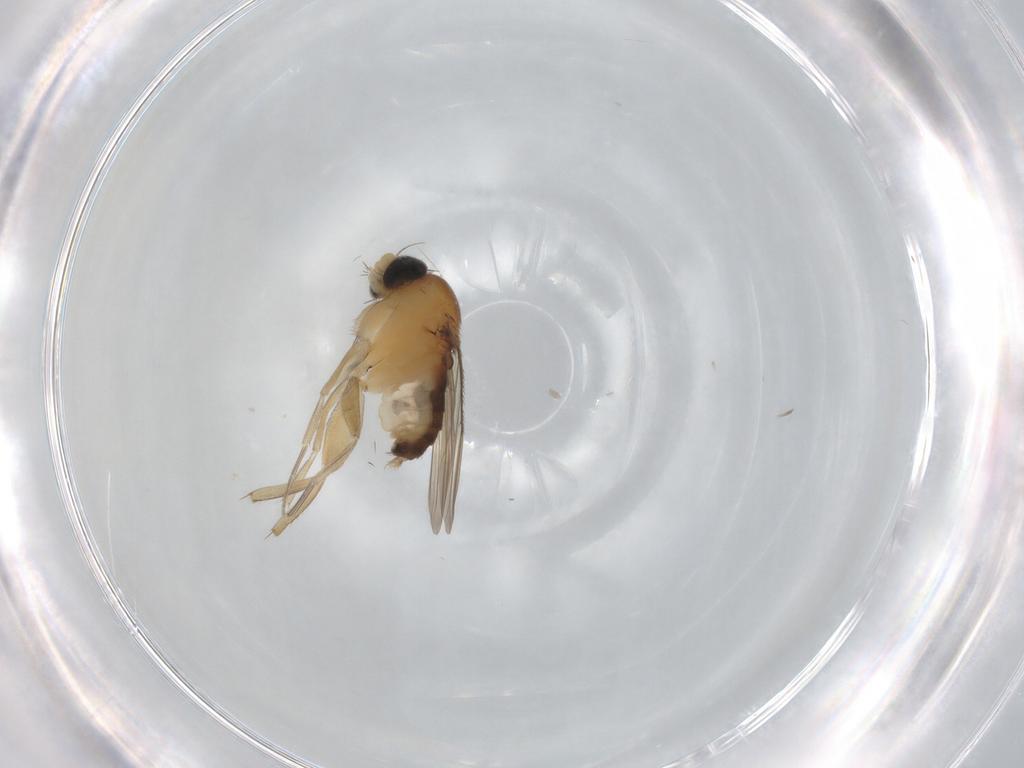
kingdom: Animalia
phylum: Arthropoda
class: Insecta
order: Diptera
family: Phoridae
